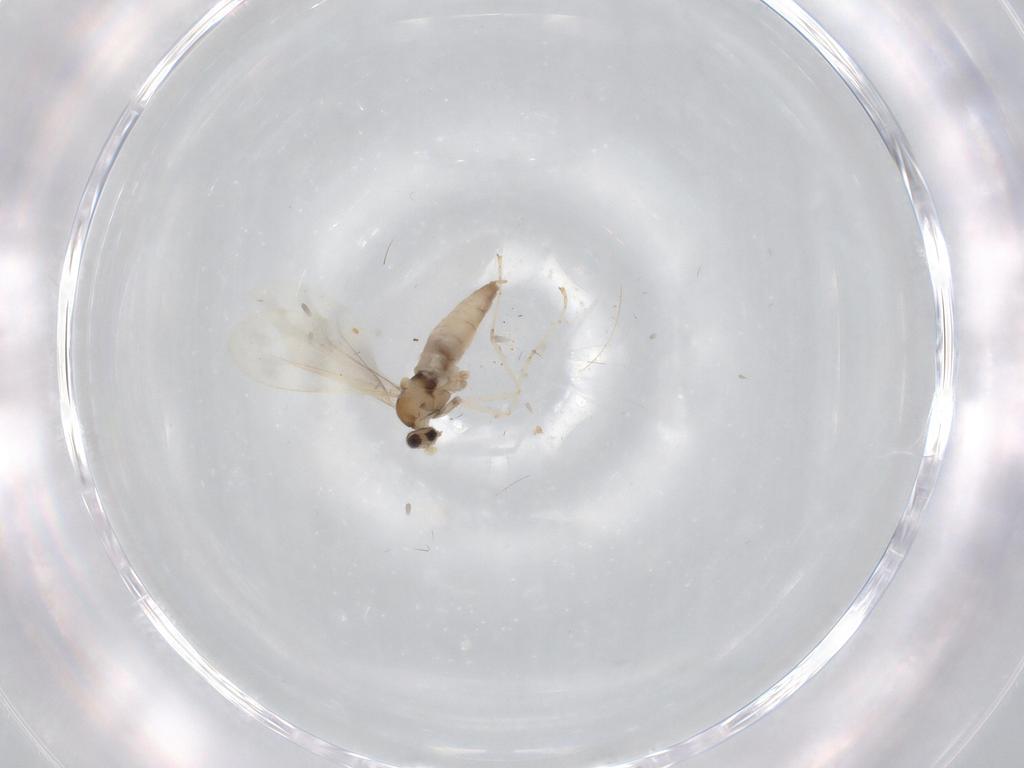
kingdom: Animalia
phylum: Arthropoda
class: Insecta
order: Diptera
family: Cecidomyiidae
